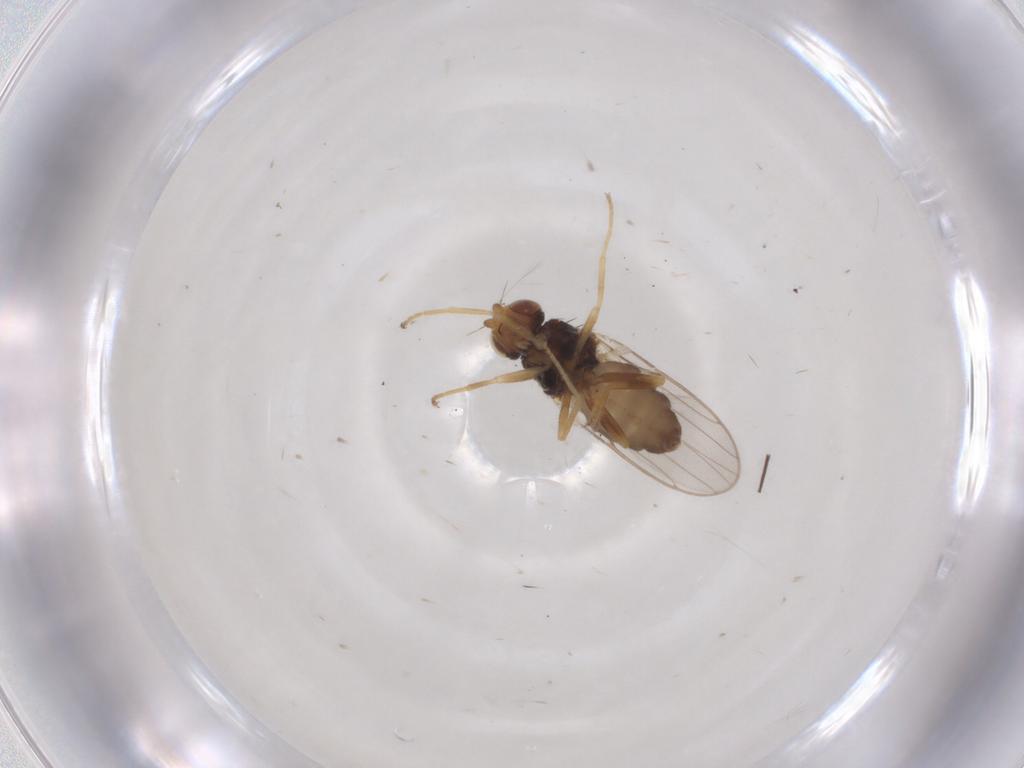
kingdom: Animalia
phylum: Arthropoda
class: Insecta
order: Diptera
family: Chloropidae
